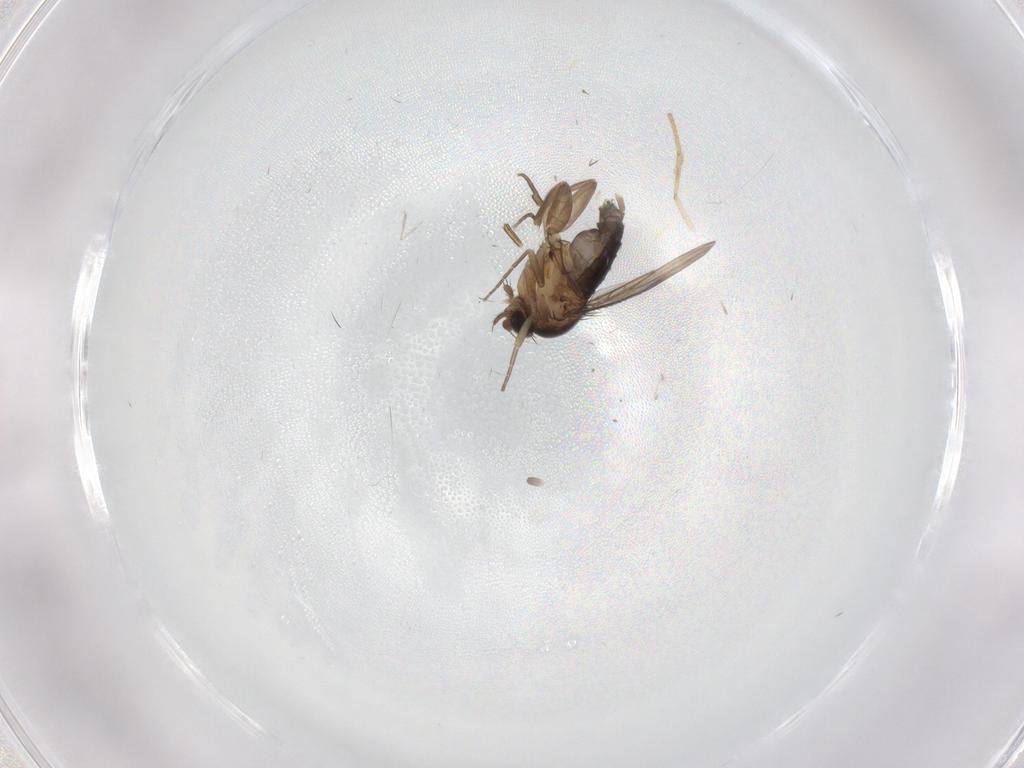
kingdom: Animalia
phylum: Arthropoda
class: Insecta
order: Diptera
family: Phoridae
